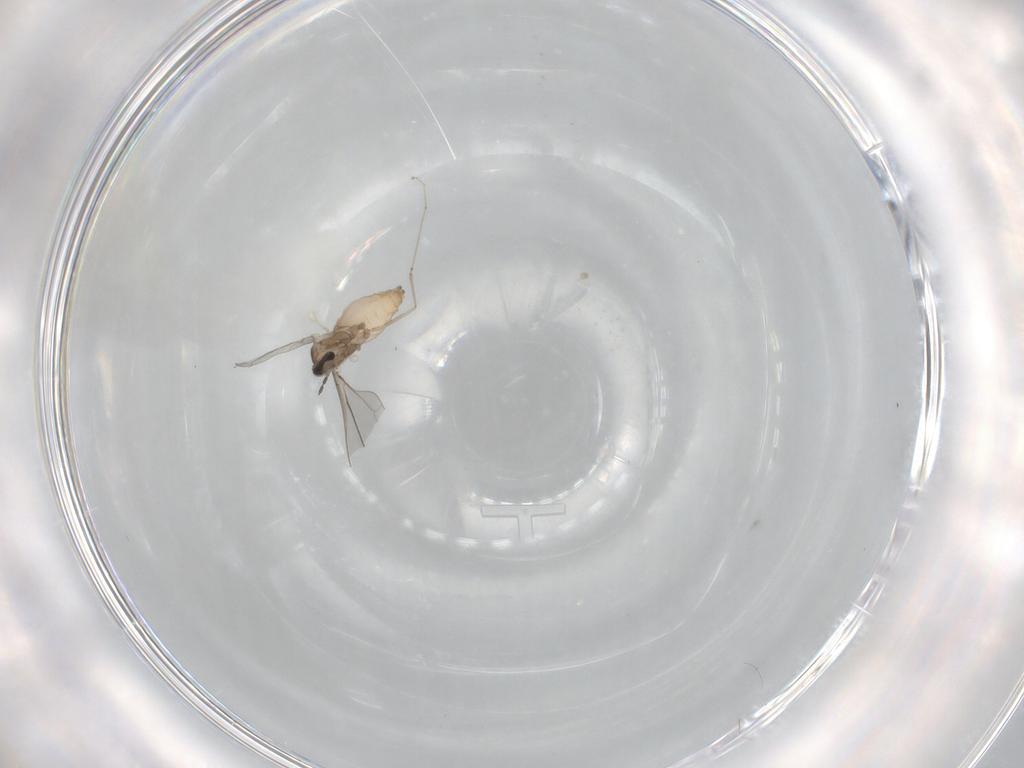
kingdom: Animalia
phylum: Arthropoda
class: Insecta
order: Diptera
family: Cecidomyiidae
